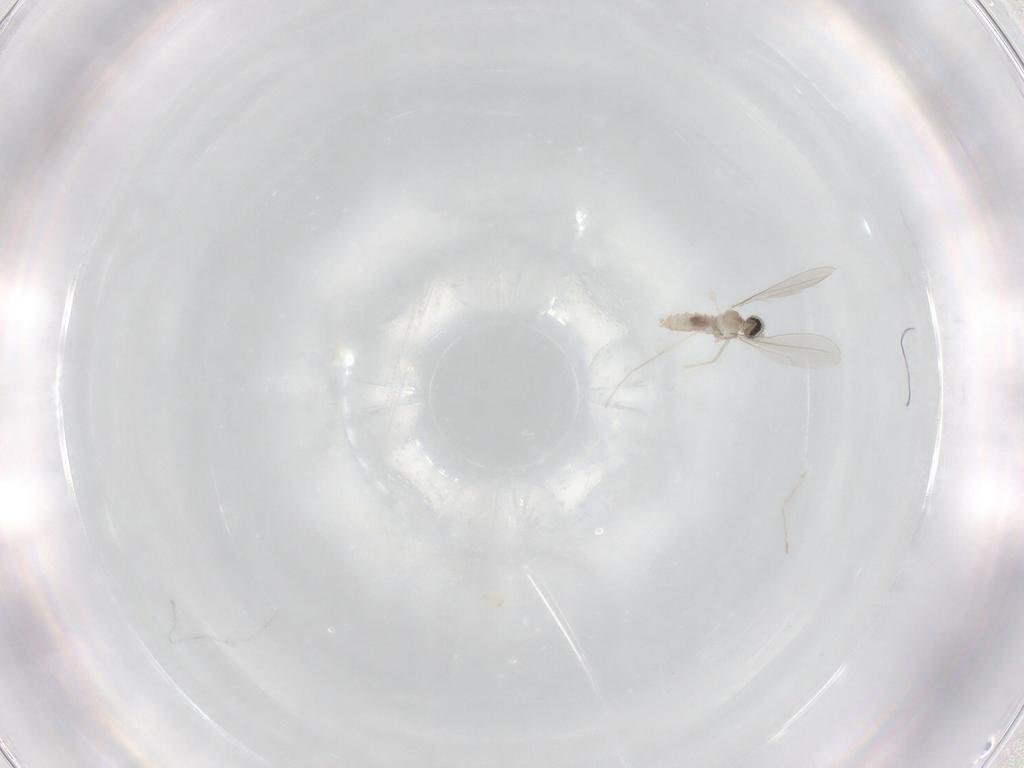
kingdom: Animalia
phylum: Arthropoda
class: Insecta
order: Diptera
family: Cecidomyiidae
